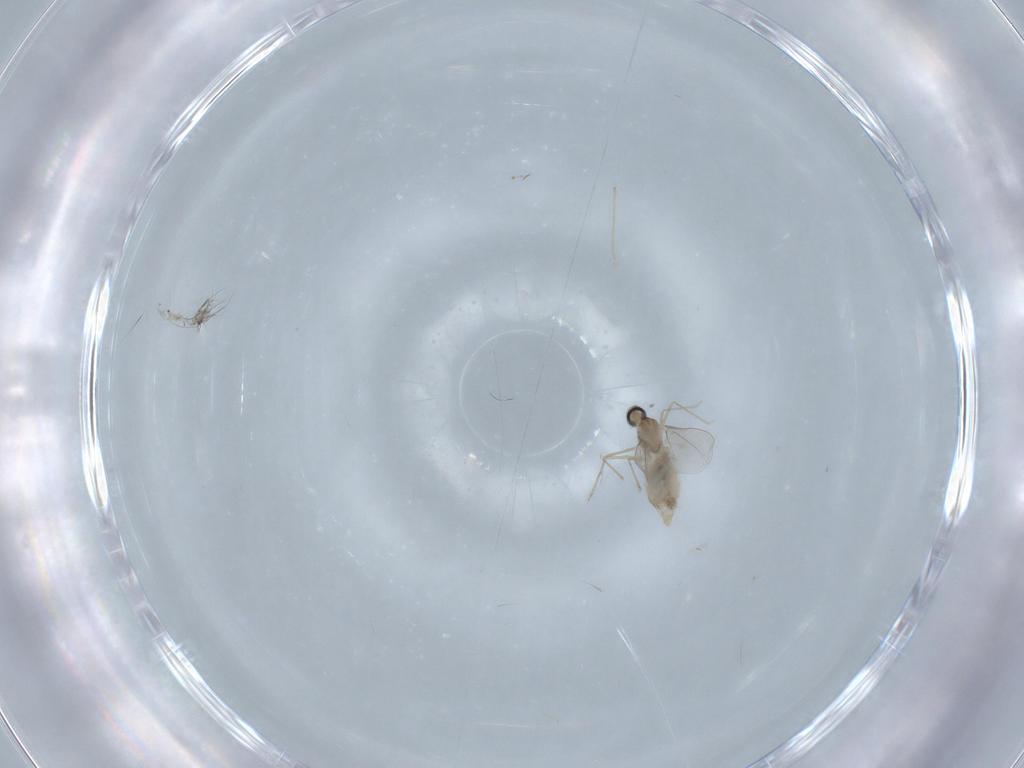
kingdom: Animalia
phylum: Arthropoda
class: Insecta
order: Diptera
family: Cecidomyiidae
